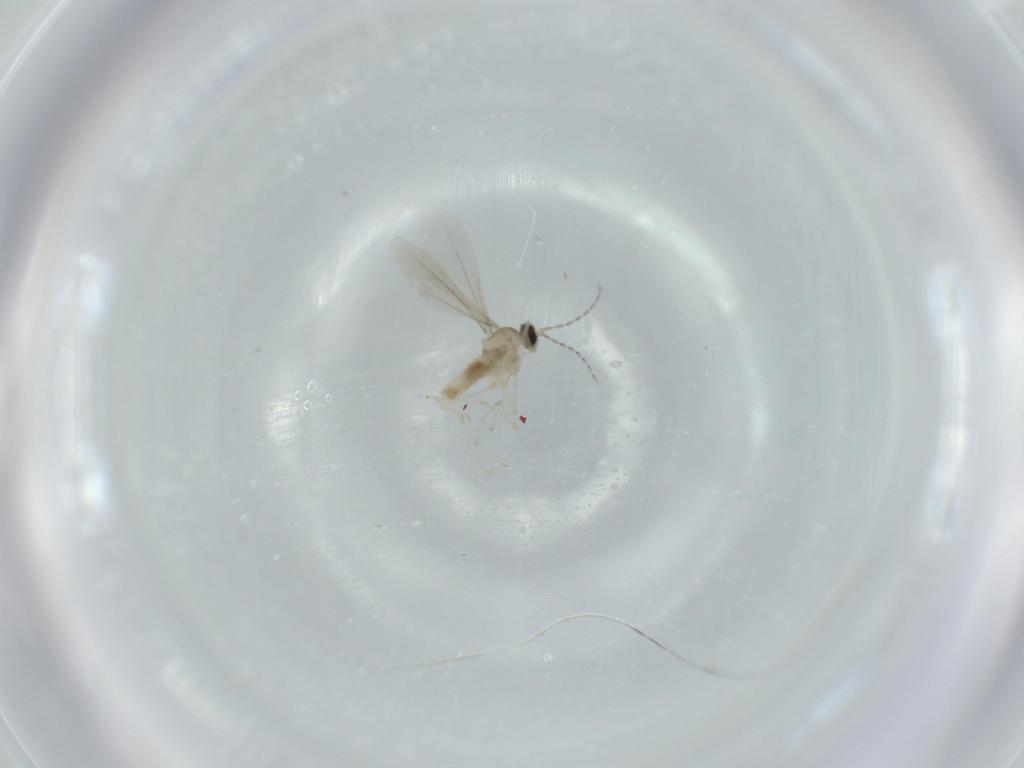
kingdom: Animalia
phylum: Arthropoda
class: Insecta
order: Diptera
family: Cecidomyiidae
